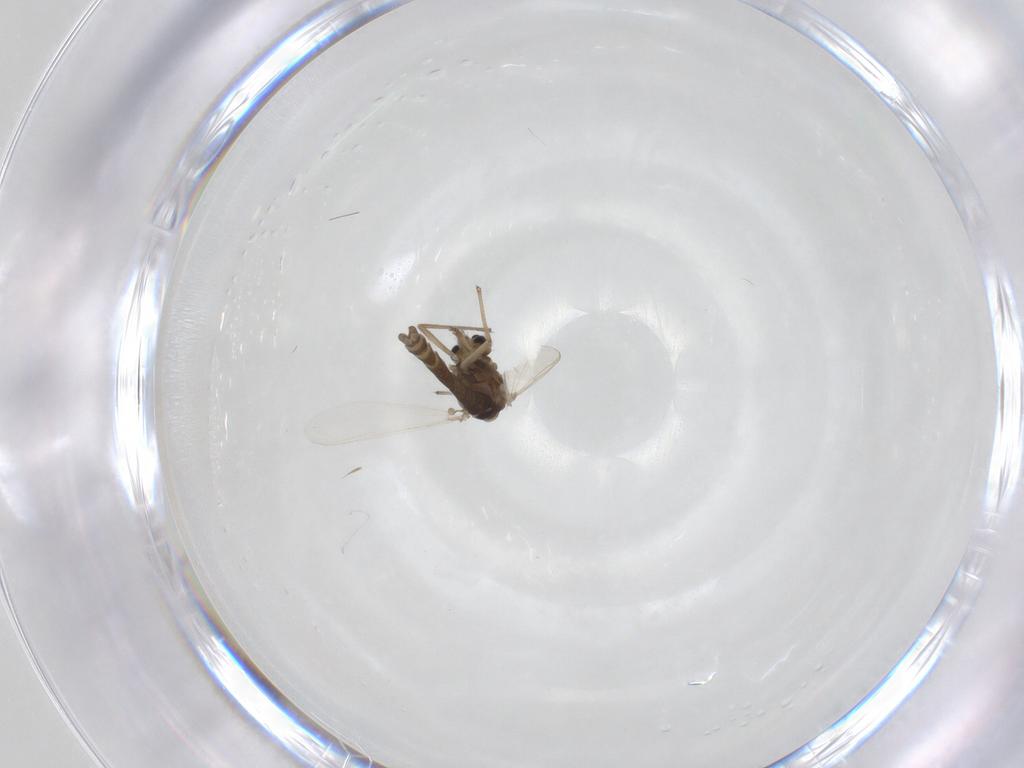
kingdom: Animalia
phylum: Arthropoda
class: Insecta
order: Diptera
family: Chironomidae
